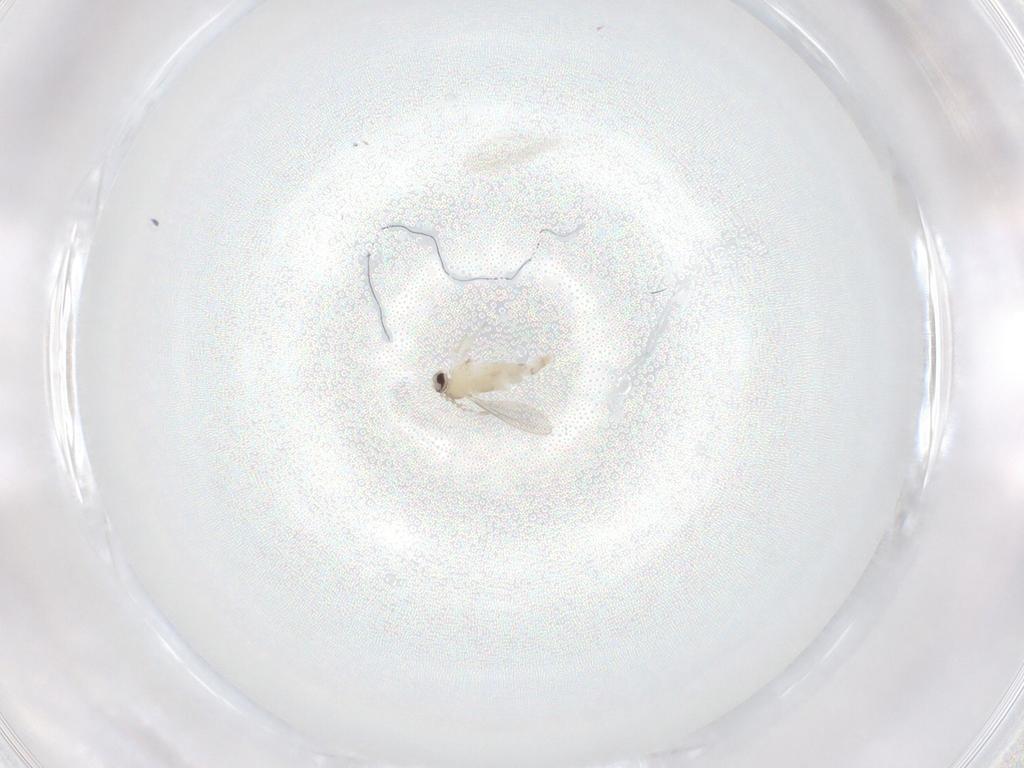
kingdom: Animalia
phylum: Arthropoda
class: Insecta
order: Diptera
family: Cecidomyiidae
